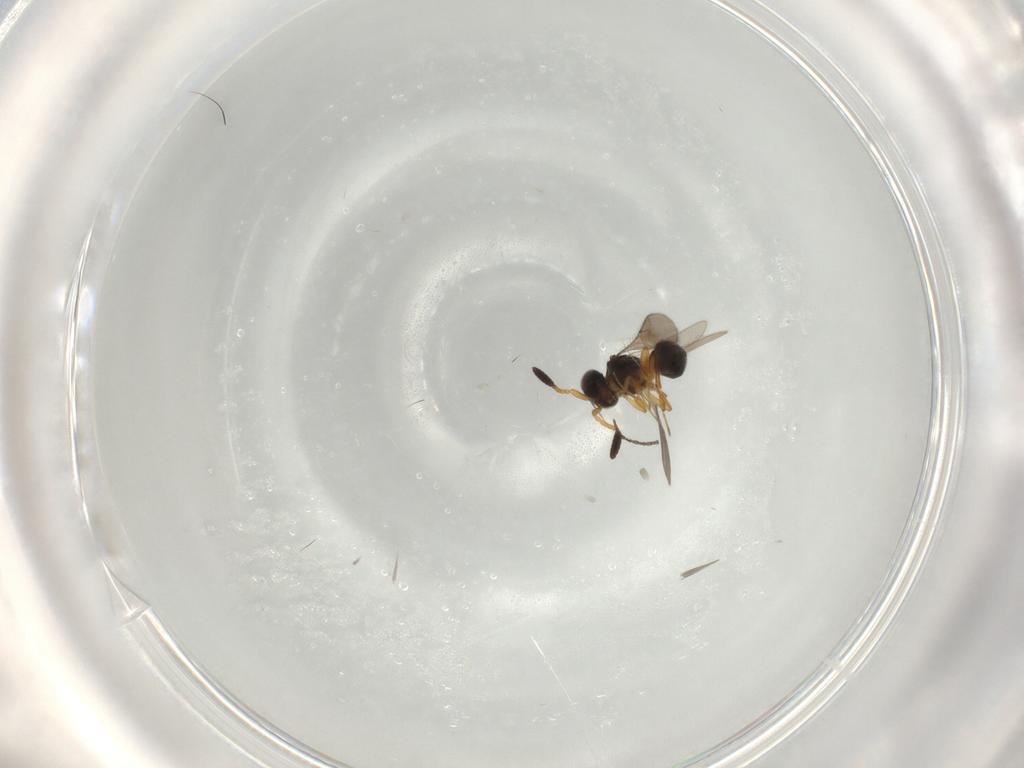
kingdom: Animalia
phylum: Arthropoda
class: Insecta
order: Hymenoptera
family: Scelionidae
